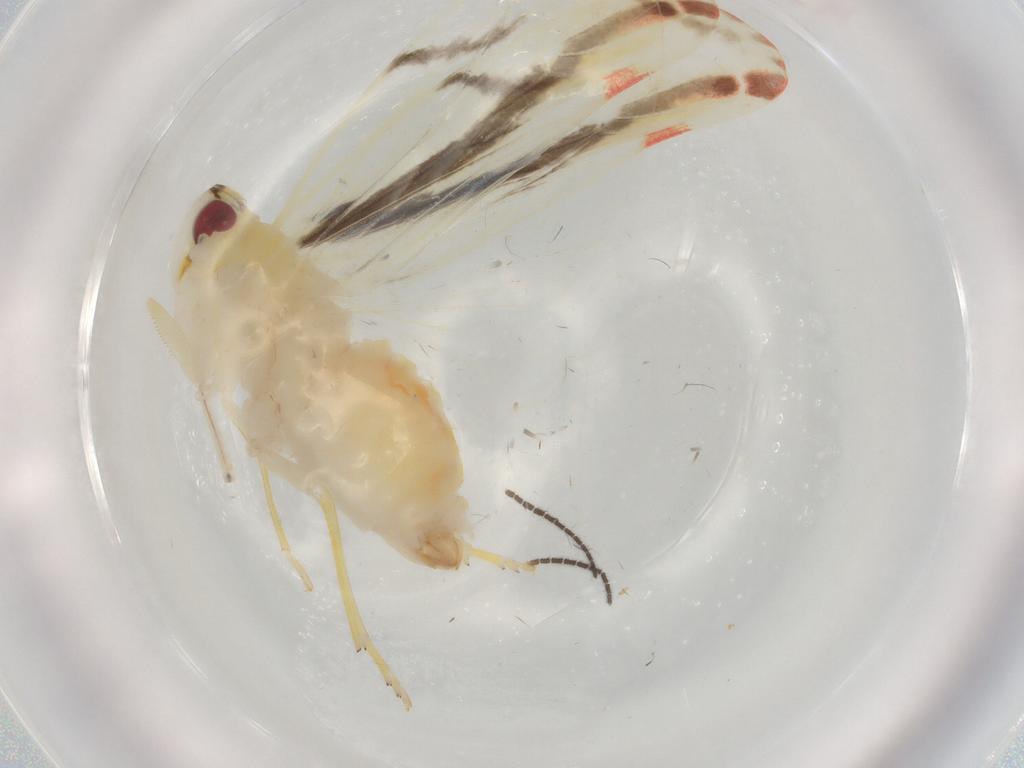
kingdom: Animalia
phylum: Arthropoda
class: Insecta
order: Hemiptera
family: Derbidae
